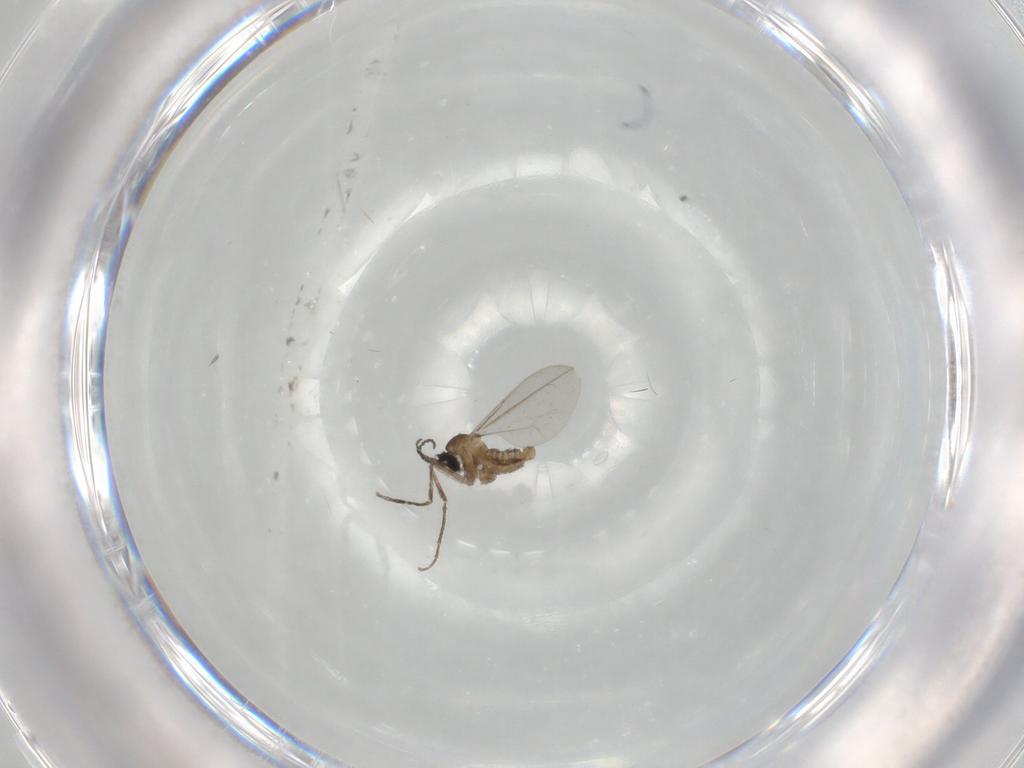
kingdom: Animalia
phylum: Arthropoda
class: Insecta
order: Diptera
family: Cecidomyiidae
